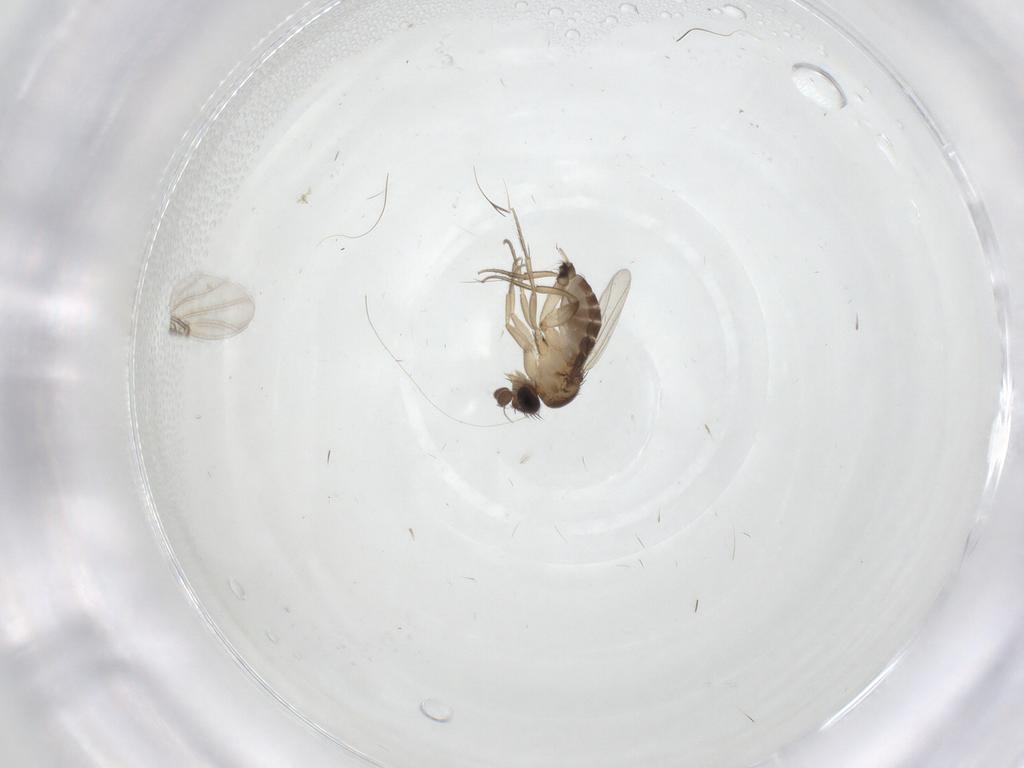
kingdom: Animalia
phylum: Arthropoda
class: Insecta
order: Diptera
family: Phoridae
